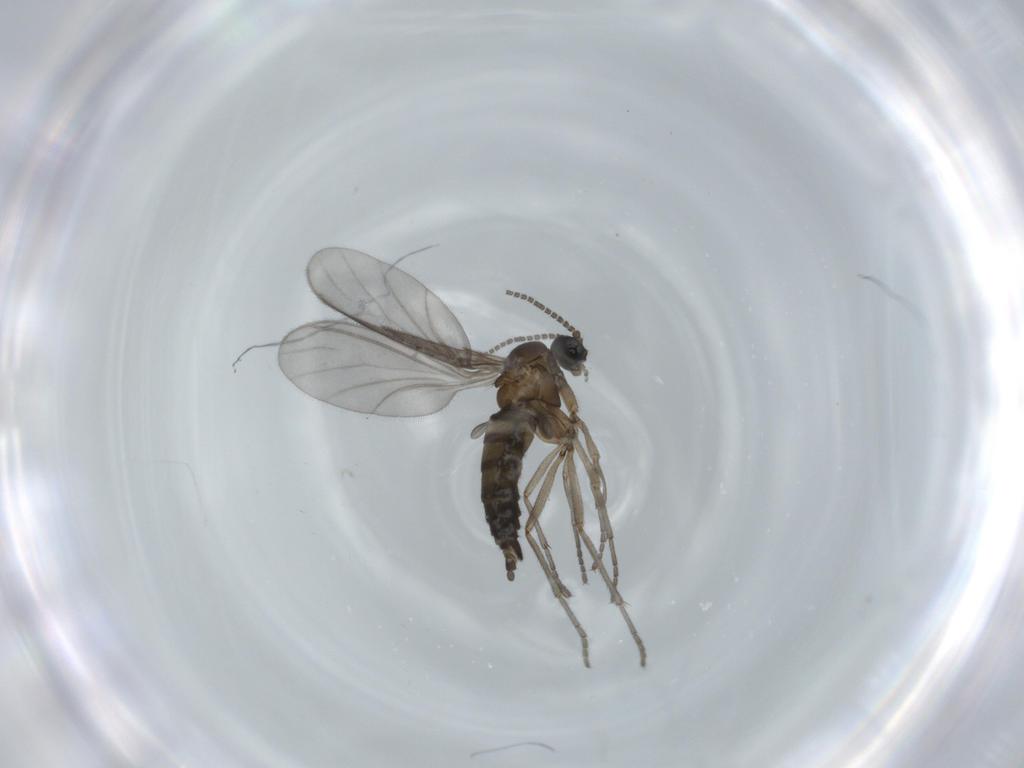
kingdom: Animalia
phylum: Arthropoda
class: Insecta
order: Diptera
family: Sciaridae
